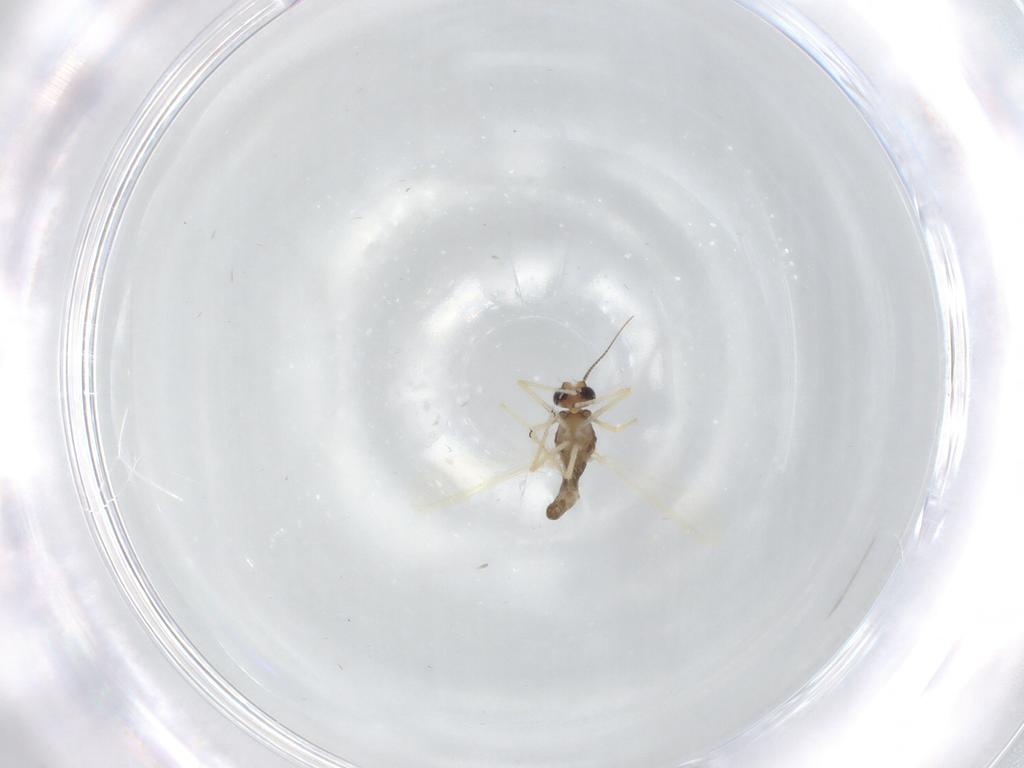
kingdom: Animalia
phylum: Arthropoda
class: Insecta
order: Diptera
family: Chironomidae
